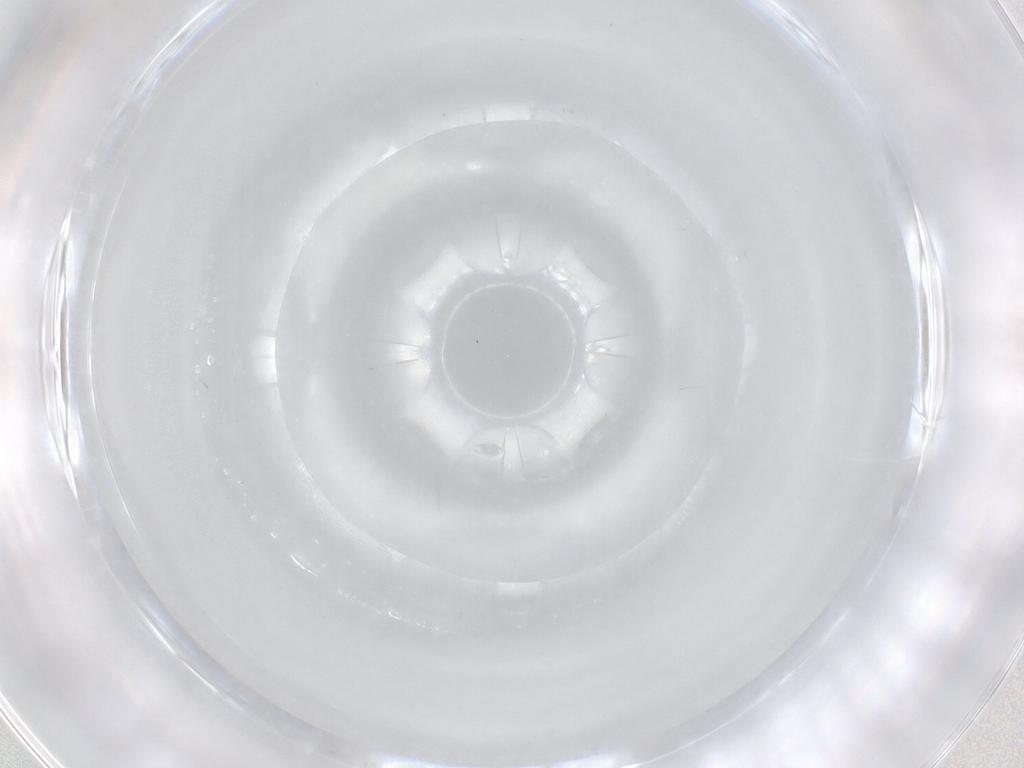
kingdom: Animalia
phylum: Arthropoda
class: Insecta
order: Diptera
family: Cecidomyiidae
